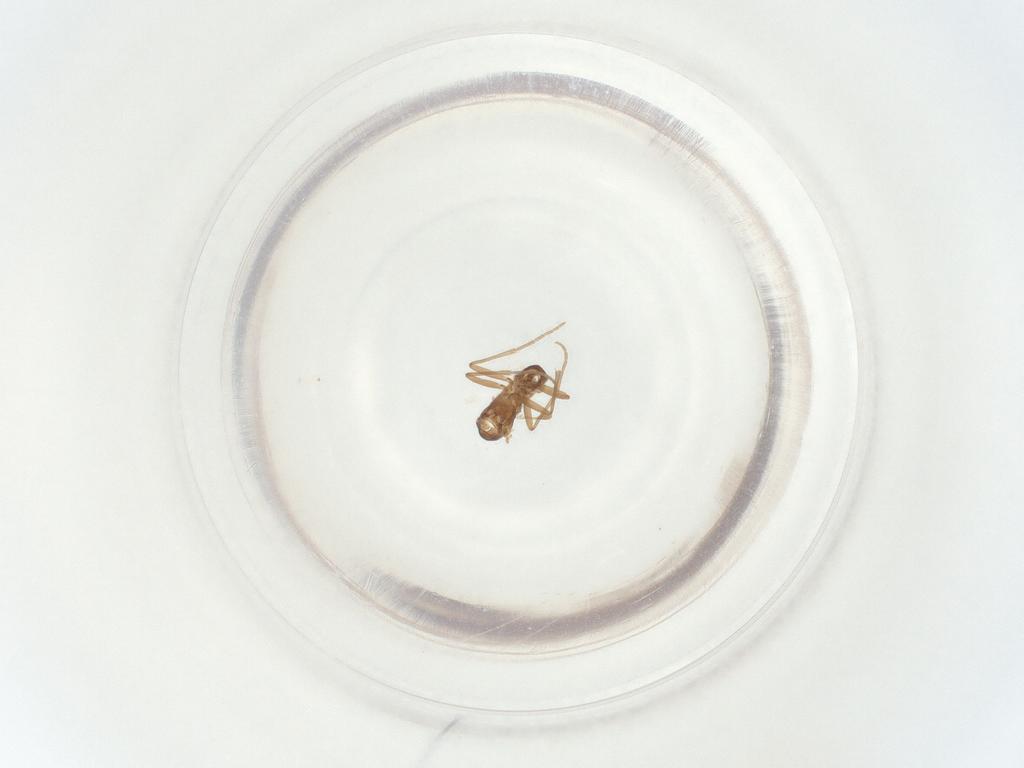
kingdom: Animalia
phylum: Arthropoda
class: Insecta
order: Diptera
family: Sciaridae
